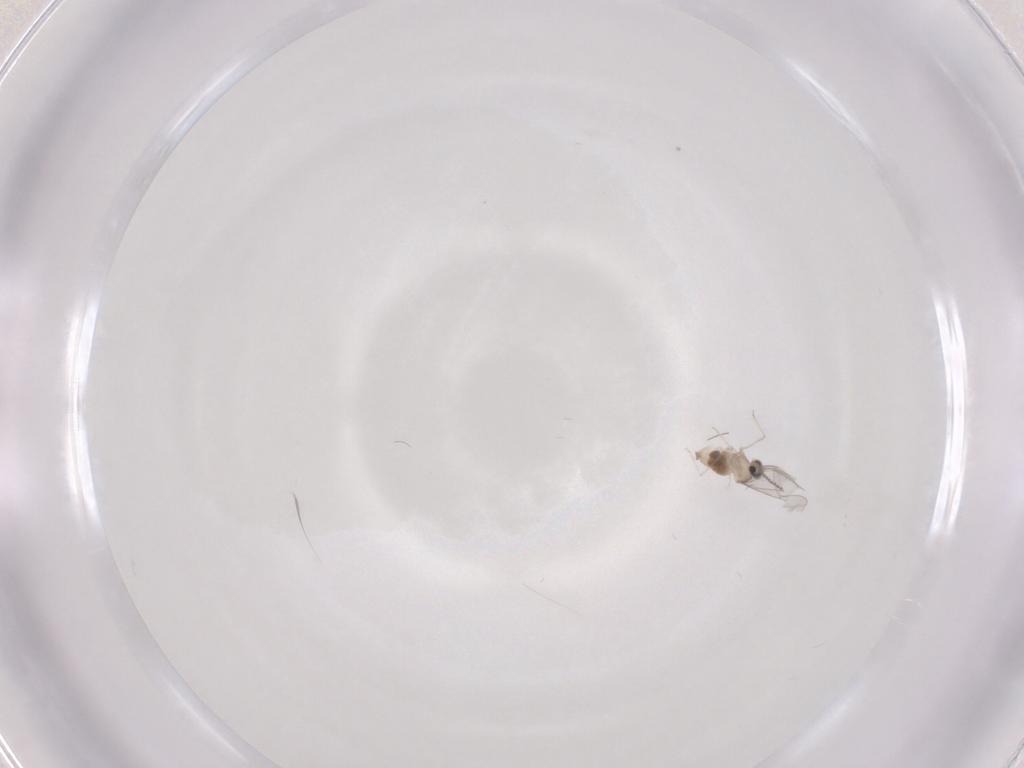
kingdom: Animalia
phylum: Arthropoda
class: Insecta
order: Diptera
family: Cecidomyiidae
